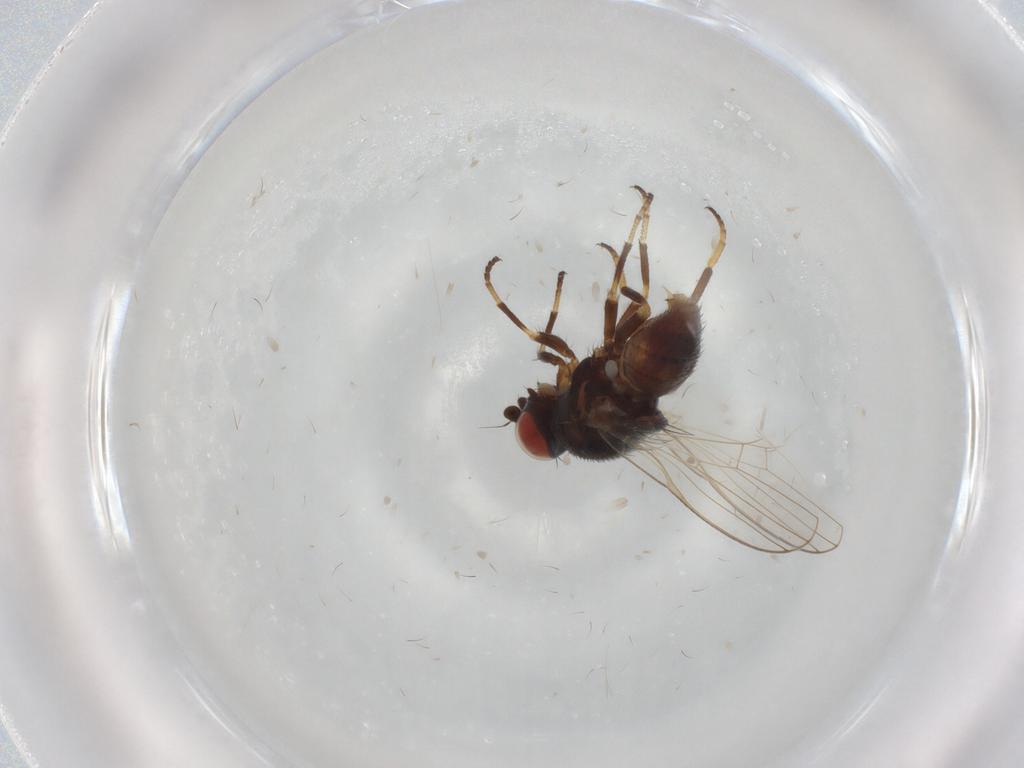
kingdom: Animalia
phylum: Arthropoda
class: Insecta
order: Diptera
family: Chamaemyiidae
